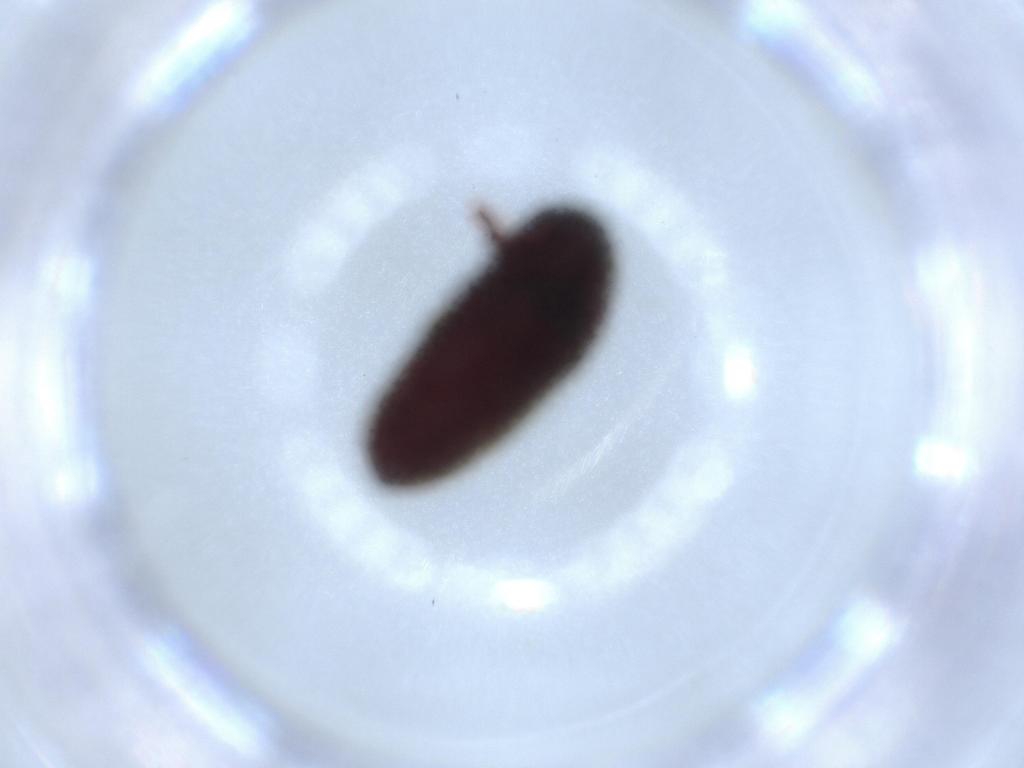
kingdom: Animalia
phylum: Arthropoda
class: Insecta
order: Coleoptera
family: Throscidae
